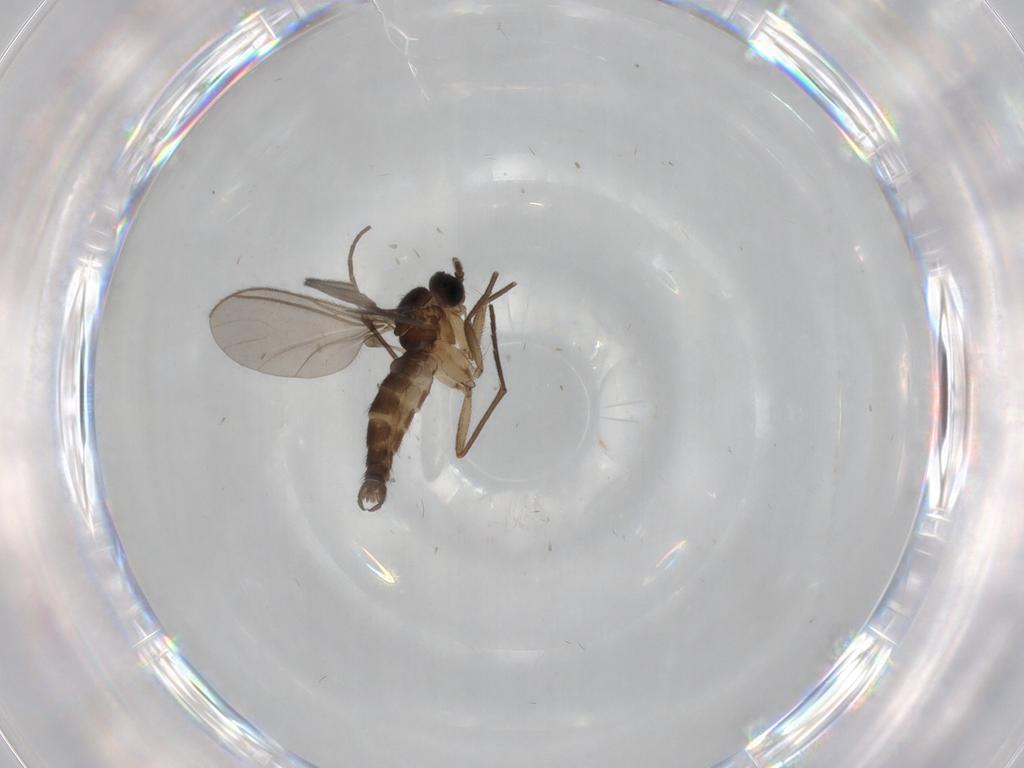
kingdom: Animalia
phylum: Arthropoda
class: Insecta
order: Diptera
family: Sciaridae
